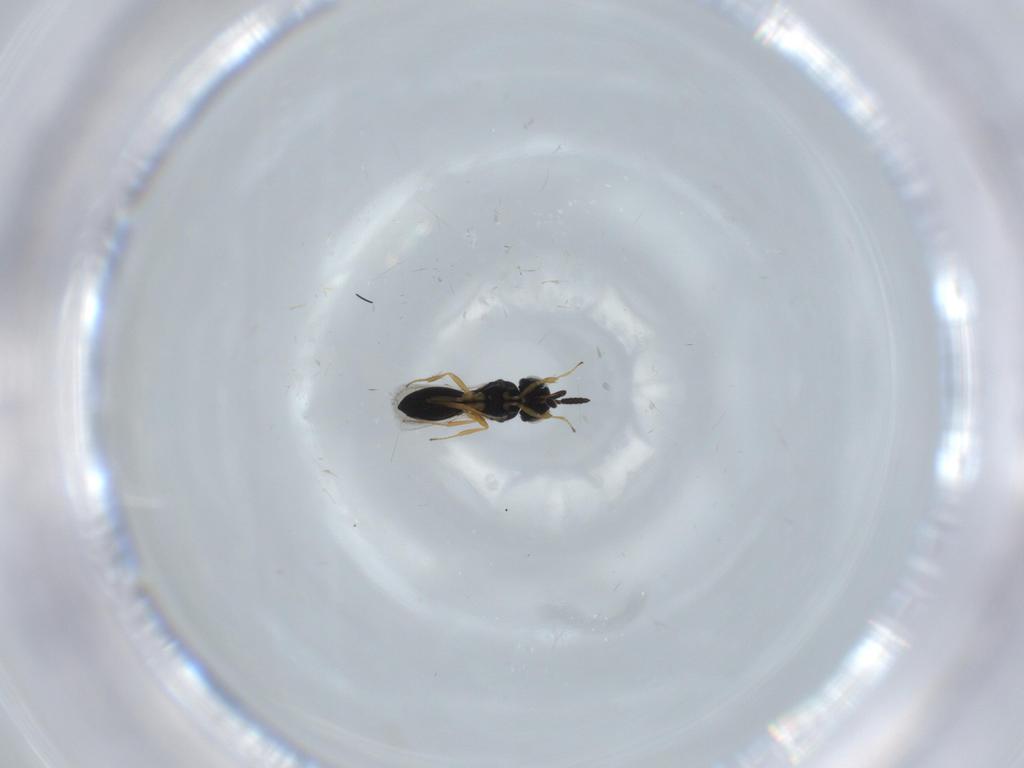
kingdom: Animalia
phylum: Arthropoda
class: Insecta
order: Hymenoptera
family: Scelionidae
